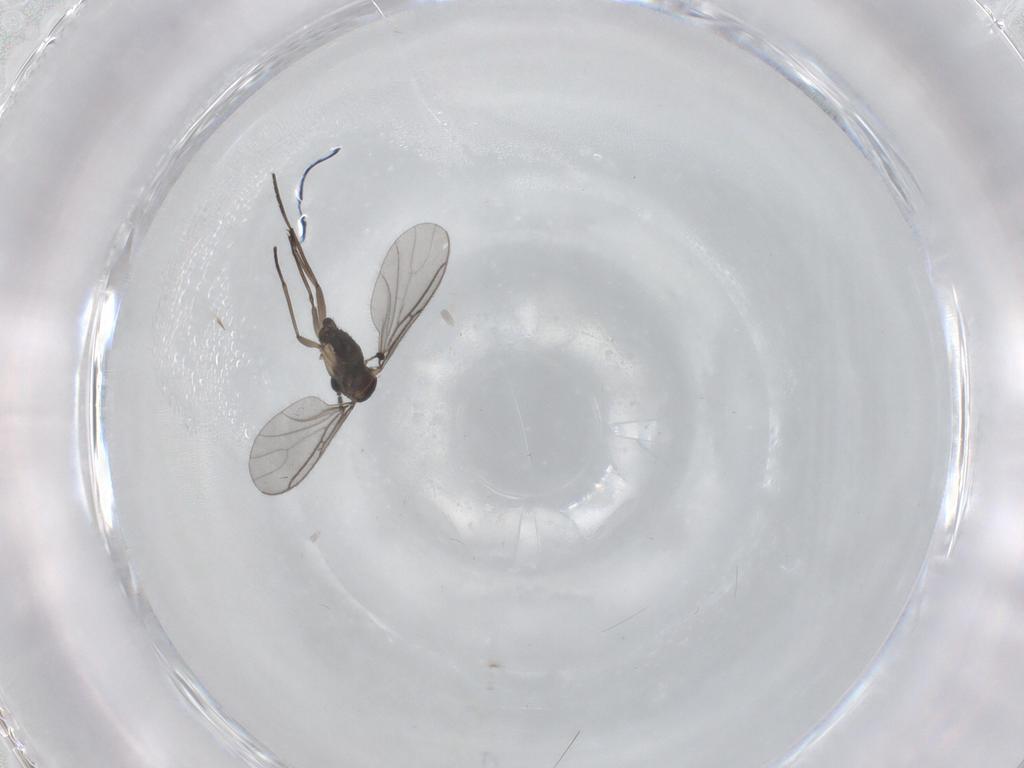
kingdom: Animalia
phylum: Arthropoda
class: Insecta
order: Diptera
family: Sciaridae
